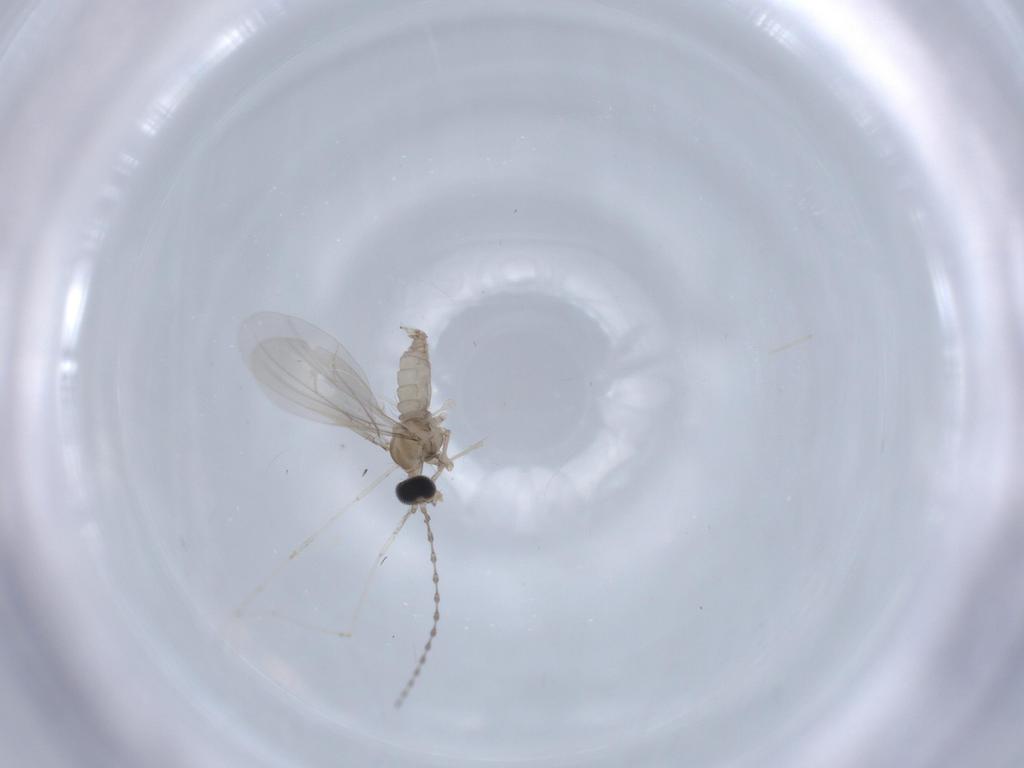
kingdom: Animalia
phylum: Arthropoda
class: Insecta
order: Diptera
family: Cecidomyiidae
